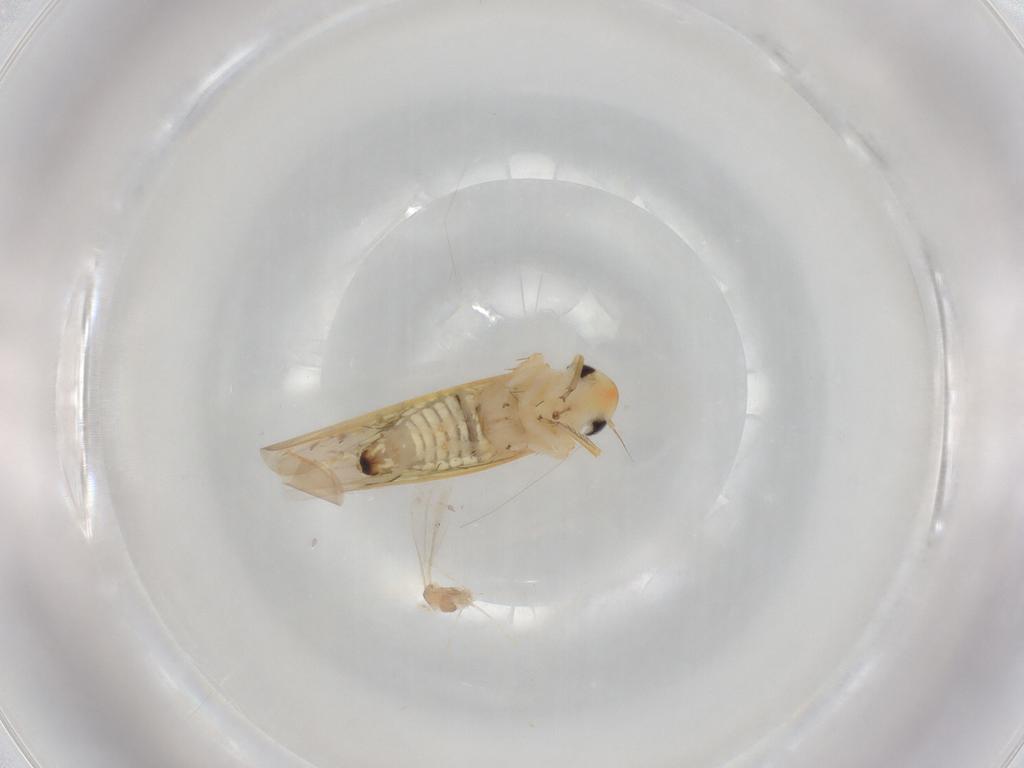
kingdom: Animalia
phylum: Arthropoda
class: Insecta
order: Hemiptera
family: Cicadellidae
